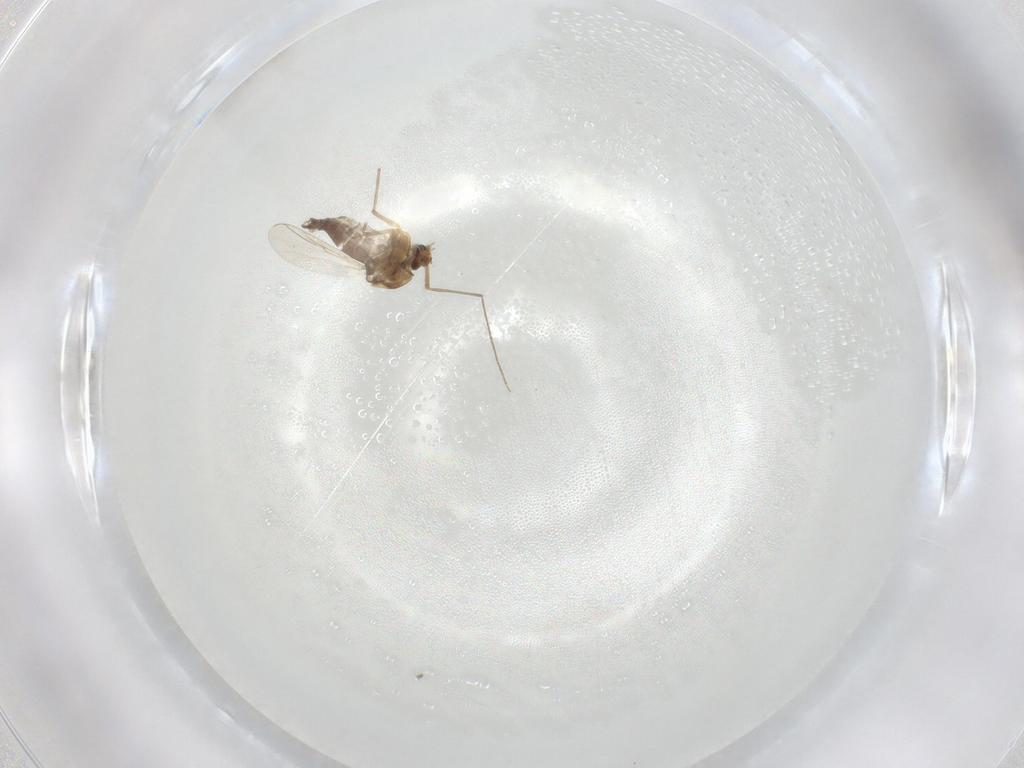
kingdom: Animalia
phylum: Arthropoda
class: Insecta
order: Diptera
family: Chironomidae
